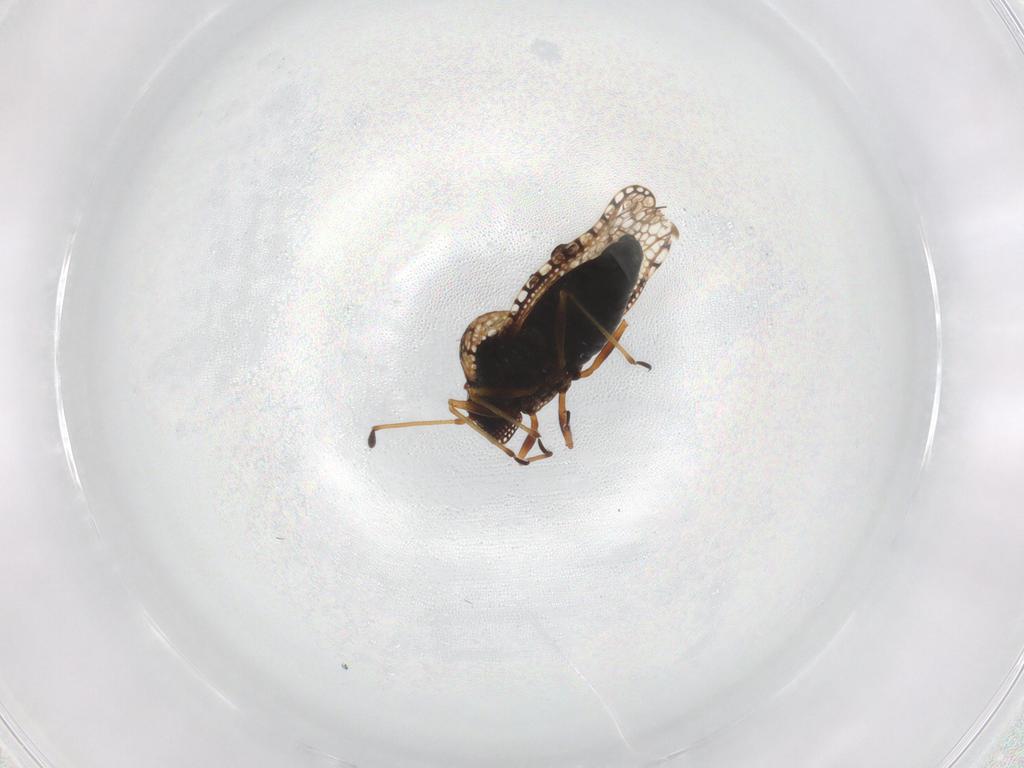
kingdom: Animalia
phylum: Arthropoda
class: Insecta
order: Hemiptera
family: Tingidae
